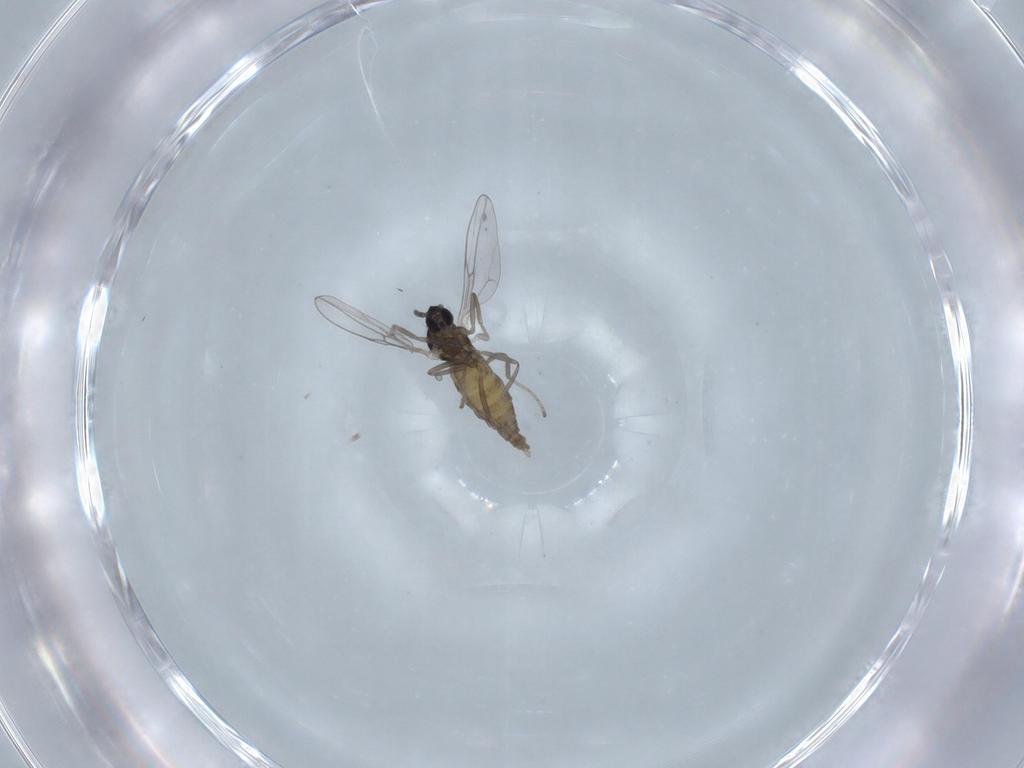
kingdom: Animalia
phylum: Arthropoda
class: Insecta
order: Diptera
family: Cecidomyiidae
